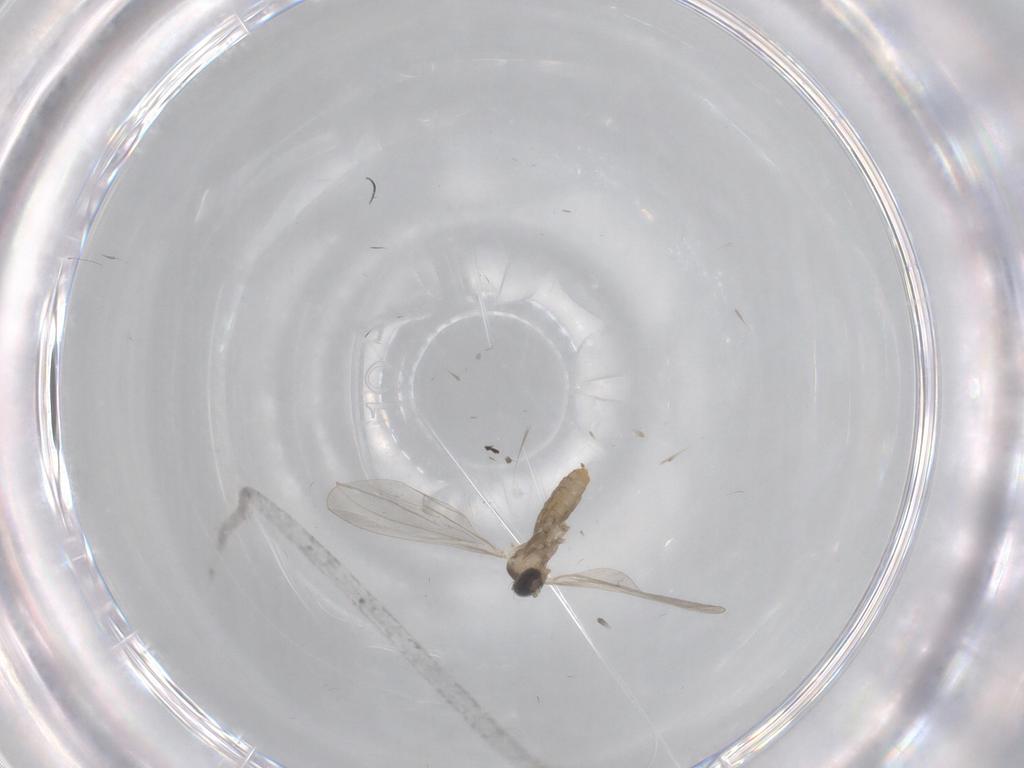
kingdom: Animalia
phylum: Arthropoda
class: Insecta
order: Diptera
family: Cecidomyiidae
